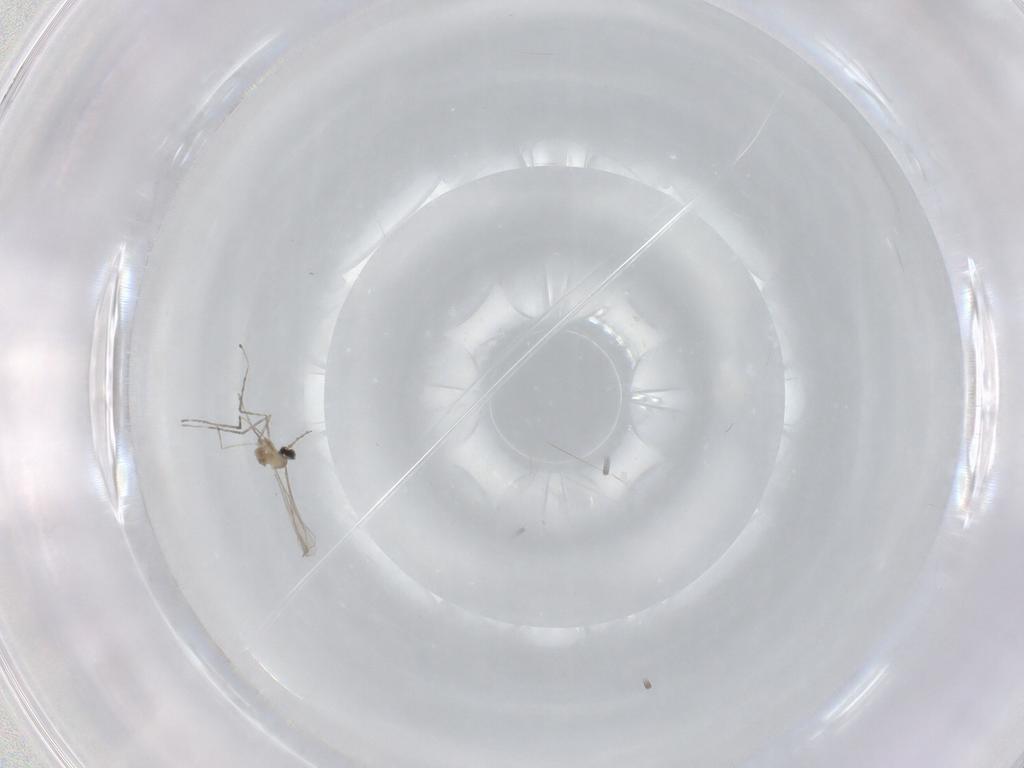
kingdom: Animalia
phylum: Arthropoda
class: Insecta
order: Diptera
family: Cecidomyiidae
